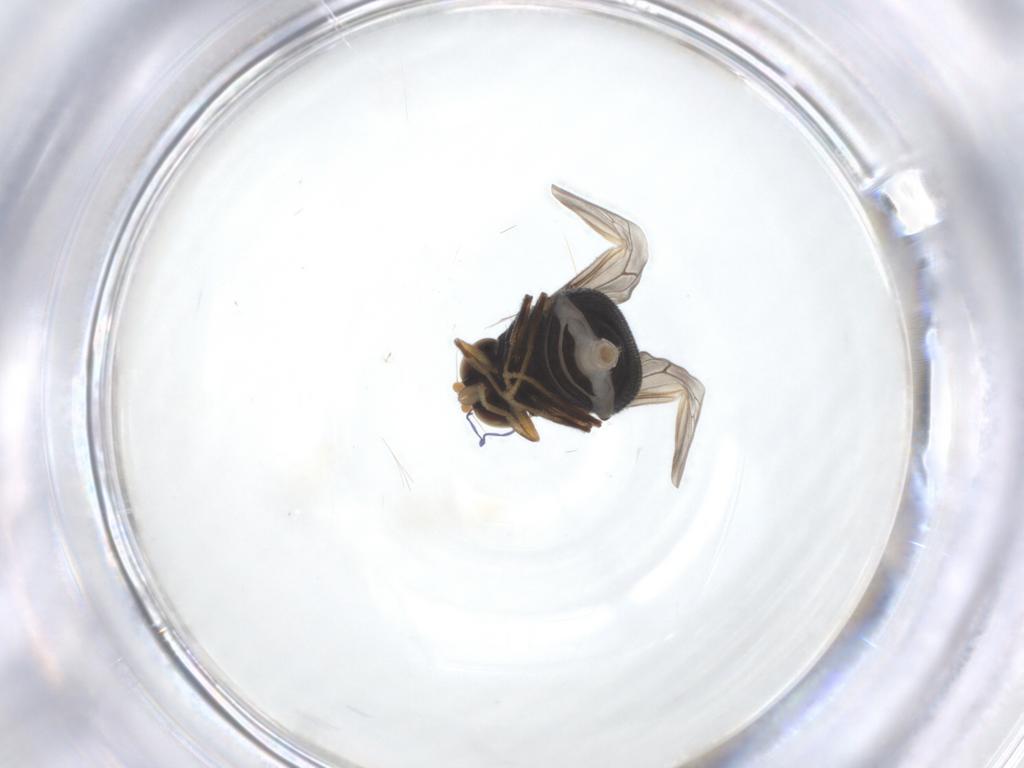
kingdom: Animalia
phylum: Arthropoda
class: Insecta
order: Diptera
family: Stratiomyidae
